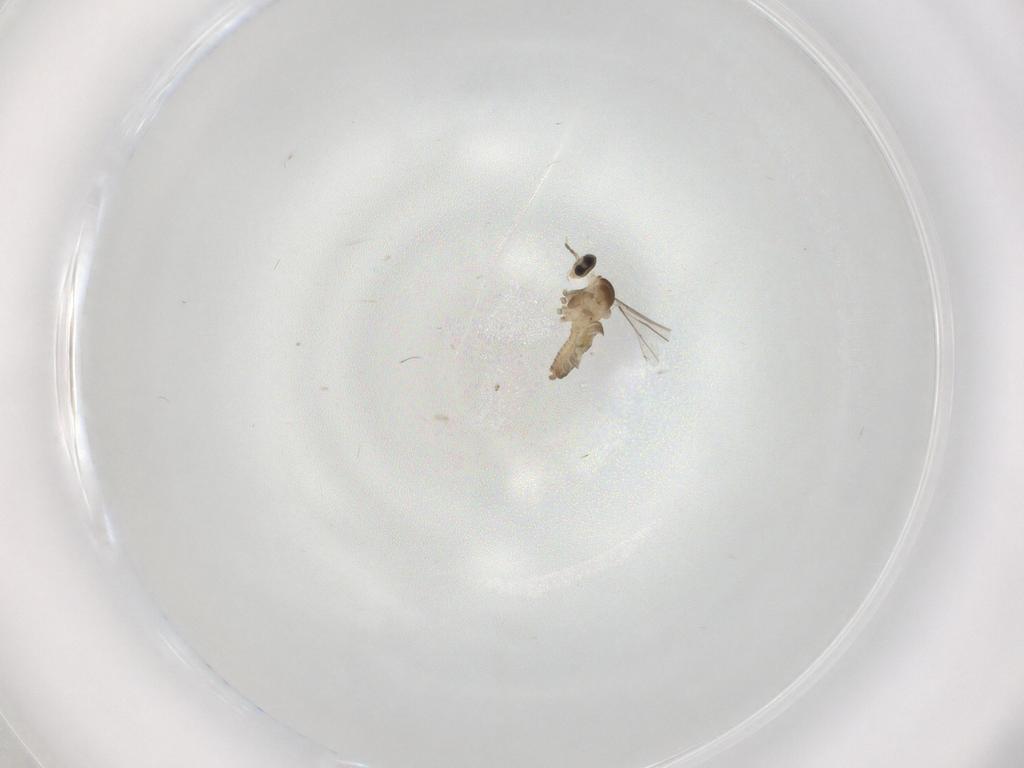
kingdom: Animalia
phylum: Arthropoda
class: Insecta
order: Diptera
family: Cecidomyiidae
